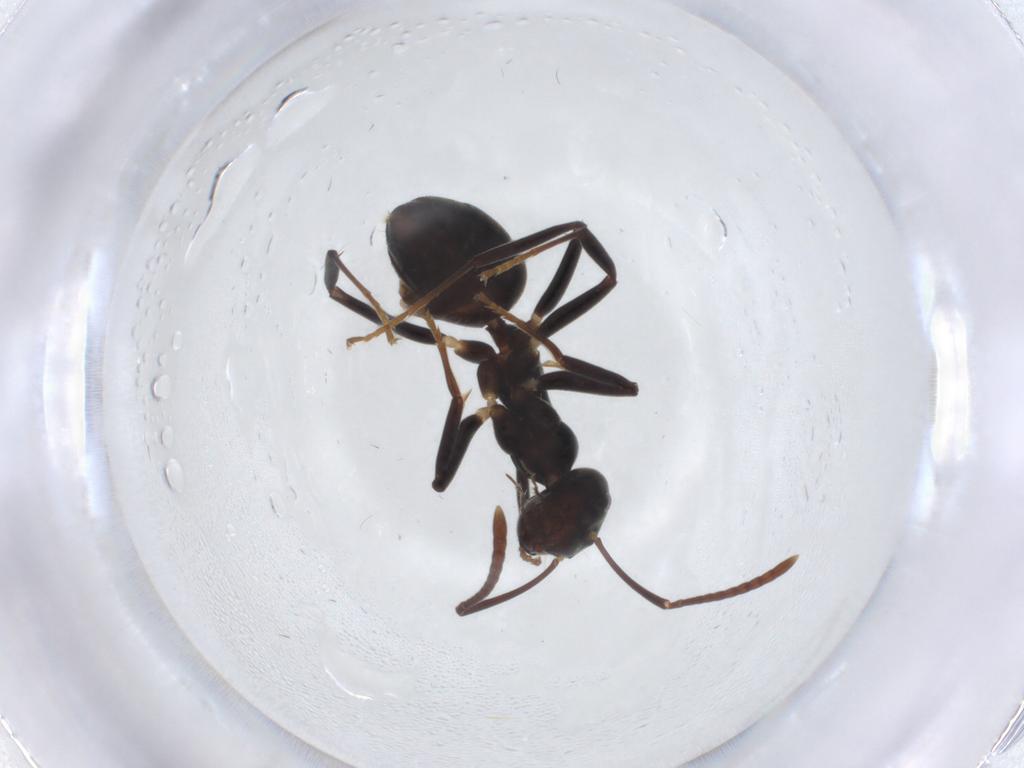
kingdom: Animalia
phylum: Arthropoda
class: Insecta
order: Hymenoptera
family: Formicidae
